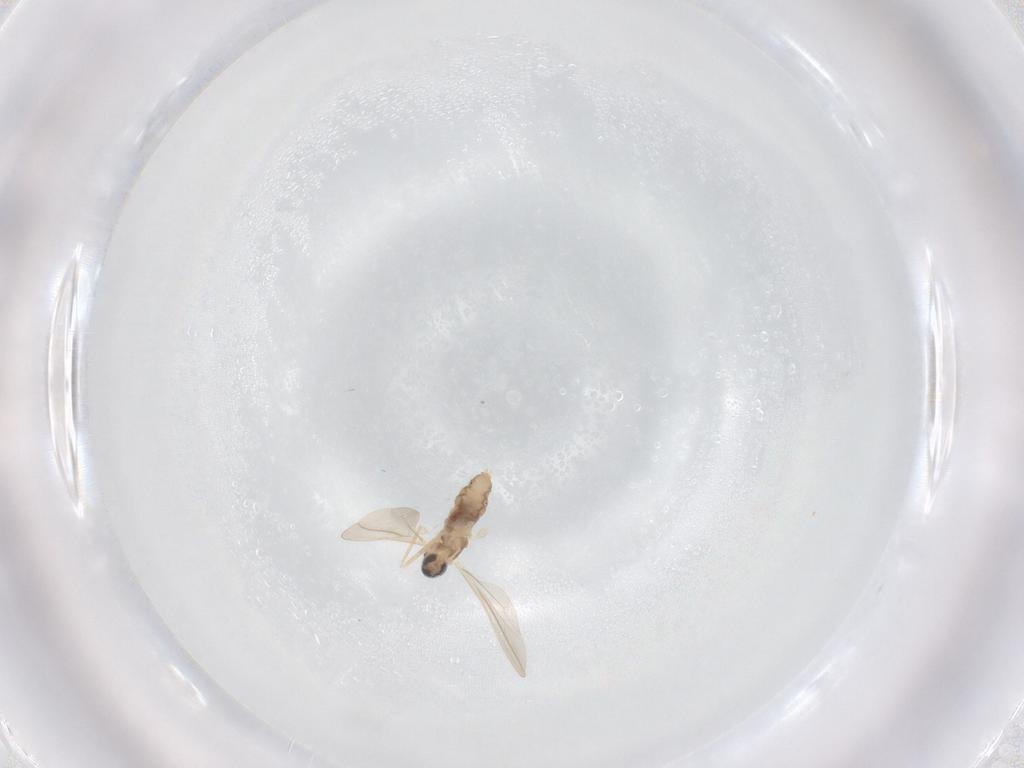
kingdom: Animalia
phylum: Arthropoda
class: Insecta
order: Diptera
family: Cecidomyiidae
